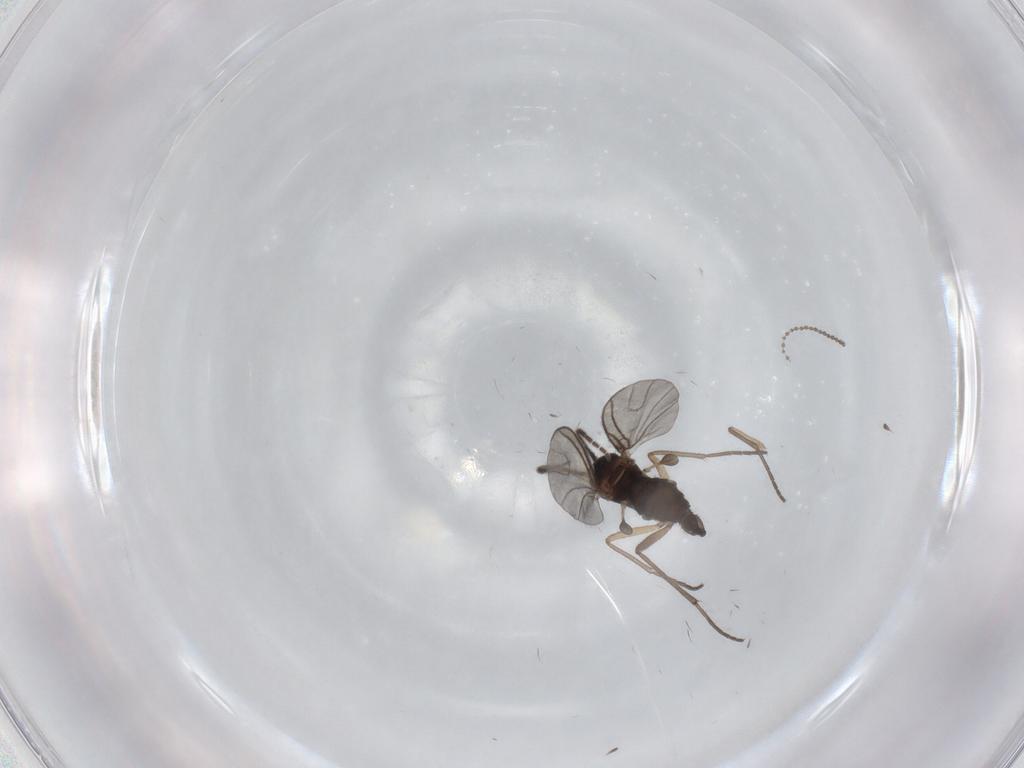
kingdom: Animalia
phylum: Arthropoda
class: Insecta
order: Diptera
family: Sciaridae
